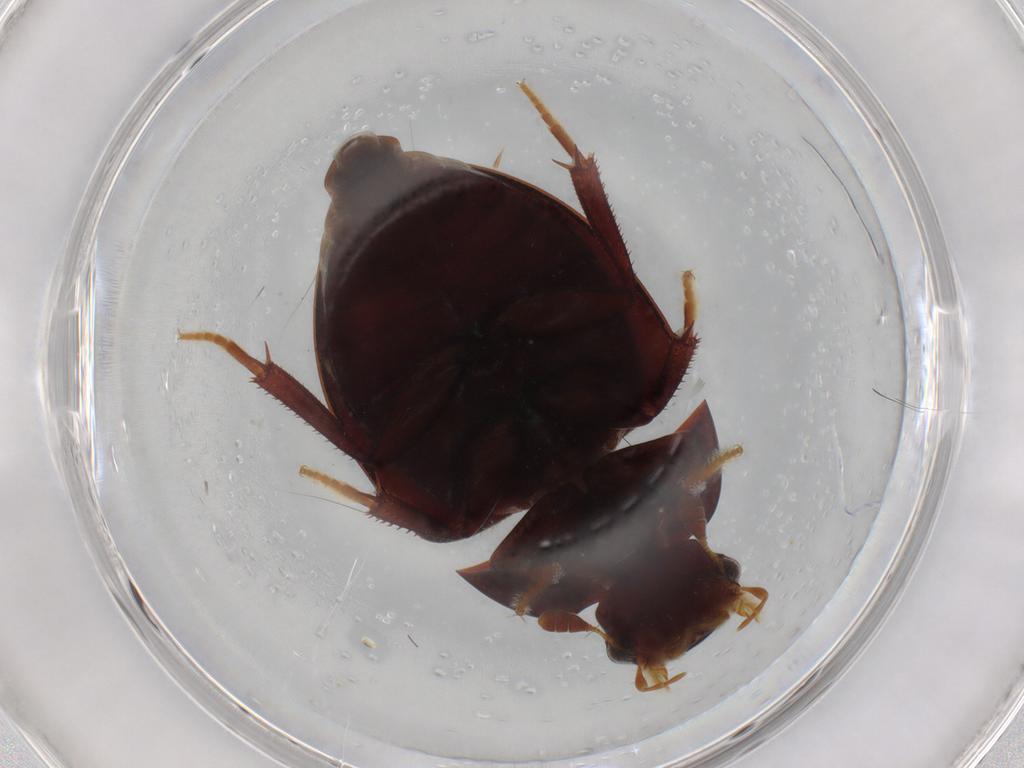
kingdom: Animalia
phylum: Arthropoda
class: Insecta
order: Coleoptera
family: Hydrophilidae
